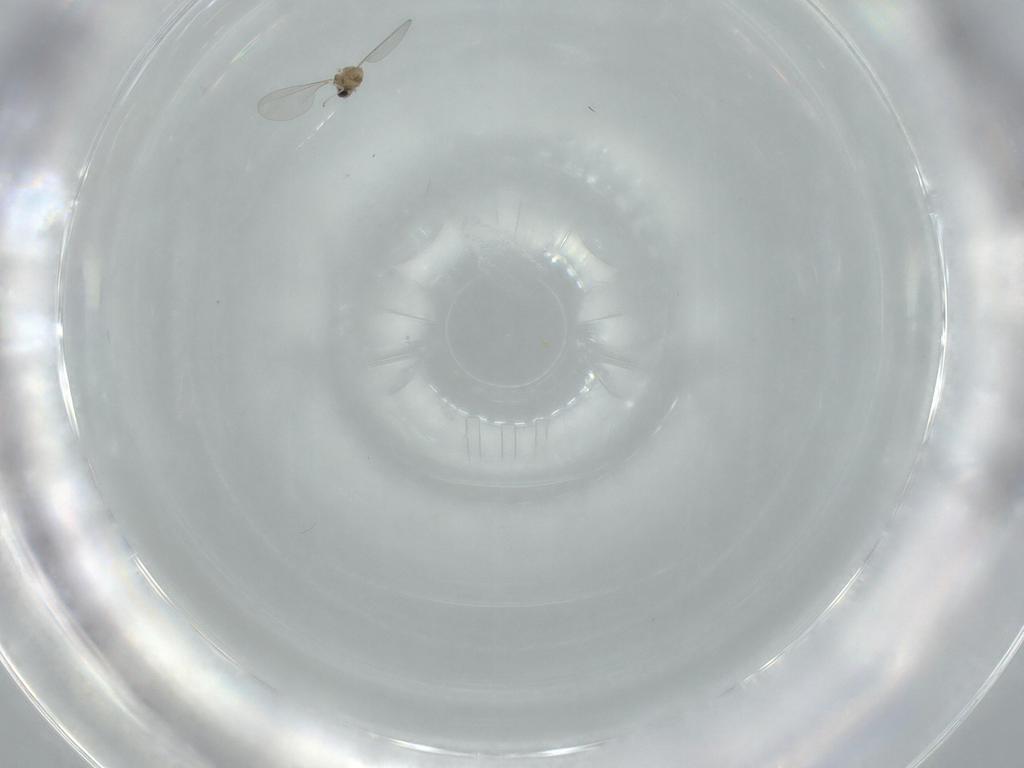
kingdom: Animalia
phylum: Arthropoda
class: Insecta
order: Diptera
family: Cecidomyiidae
